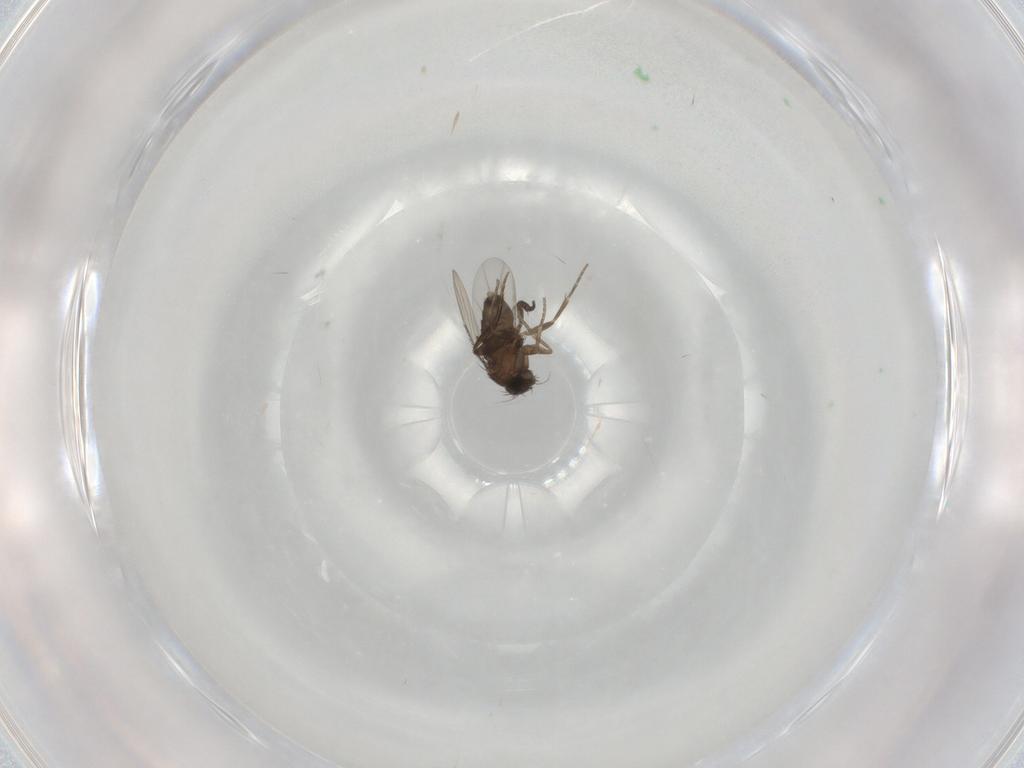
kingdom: Animalia
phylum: Arthropoda
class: Insecta
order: Diptera
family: Phoridae
